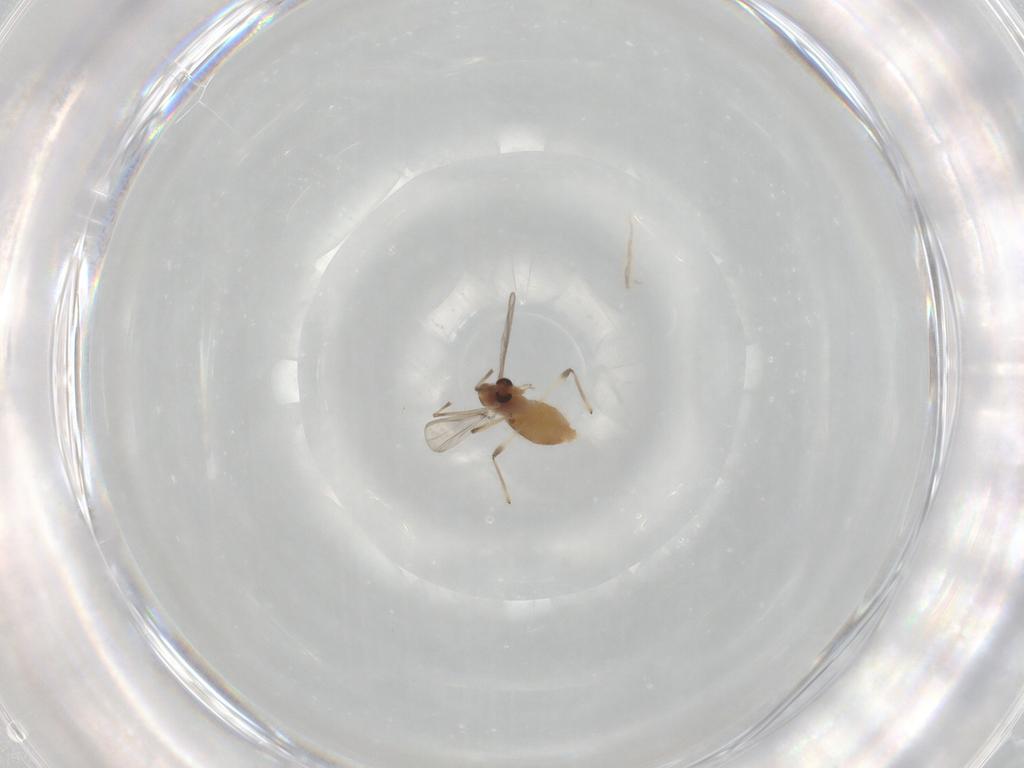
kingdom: Animalia
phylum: Arthropoda
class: Insecta
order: Diptera
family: Chironomidae
